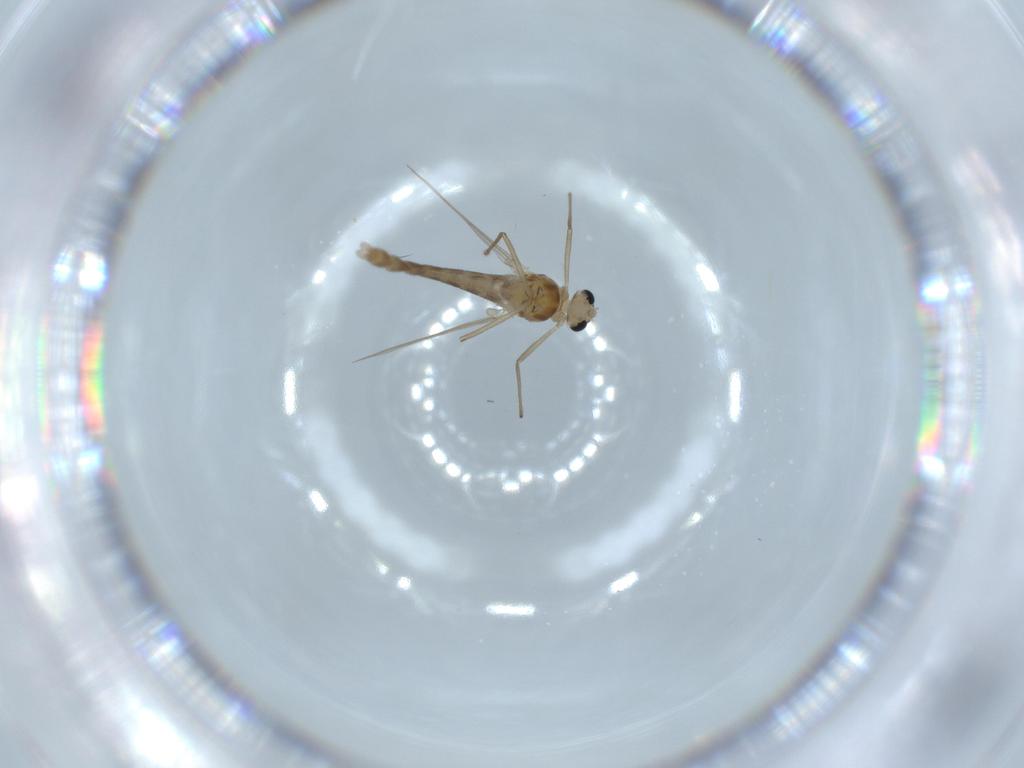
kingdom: Animalia
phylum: Arthropoda
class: Insecta
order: Diptera
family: Chironomidae
